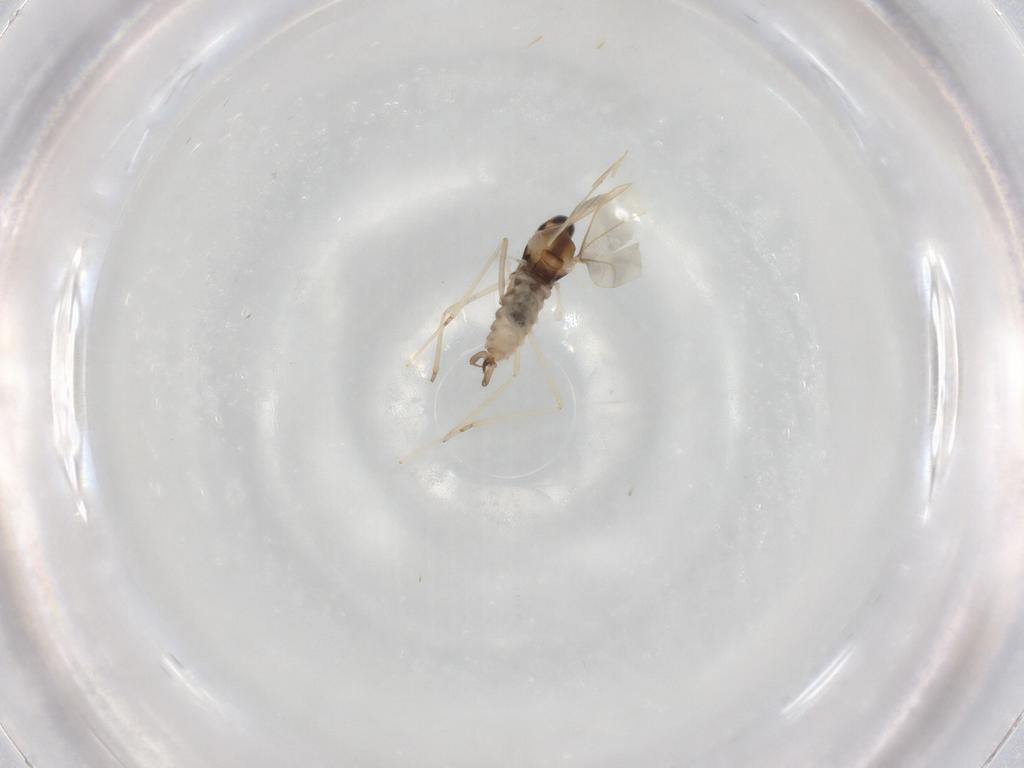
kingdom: Animalia
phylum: Arthropoda
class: Insecta
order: Diptera
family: Cecidomyiidae
